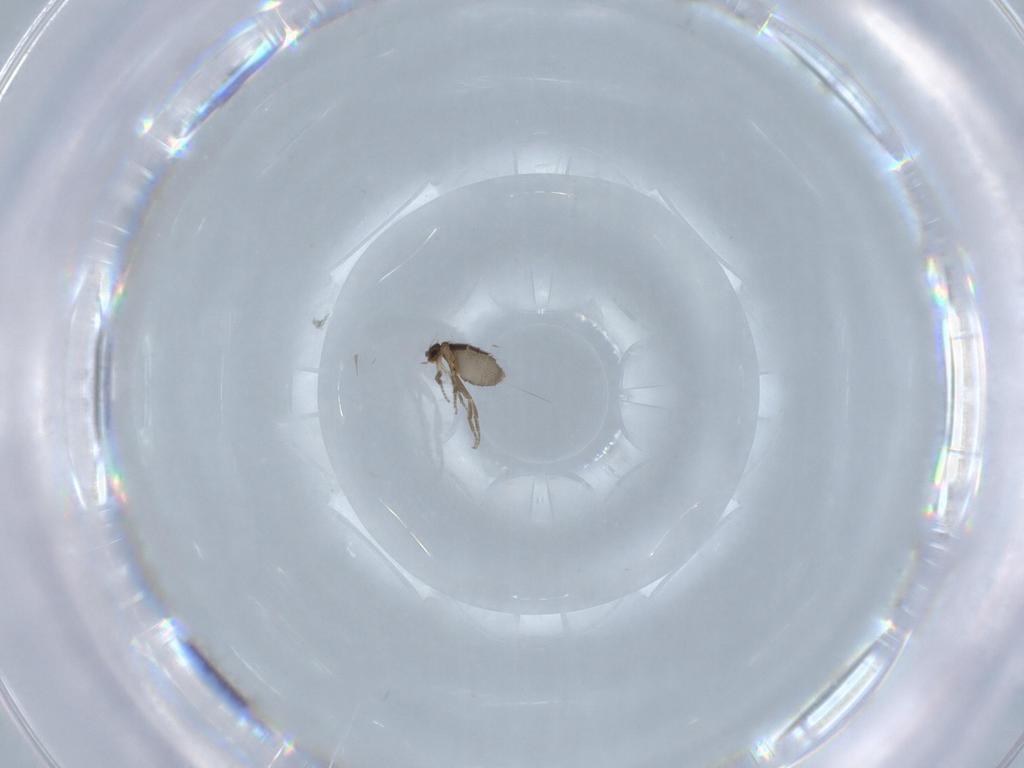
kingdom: Animalia
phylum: Arthropoda
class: Insecta
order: Diptera
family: Phoridae
